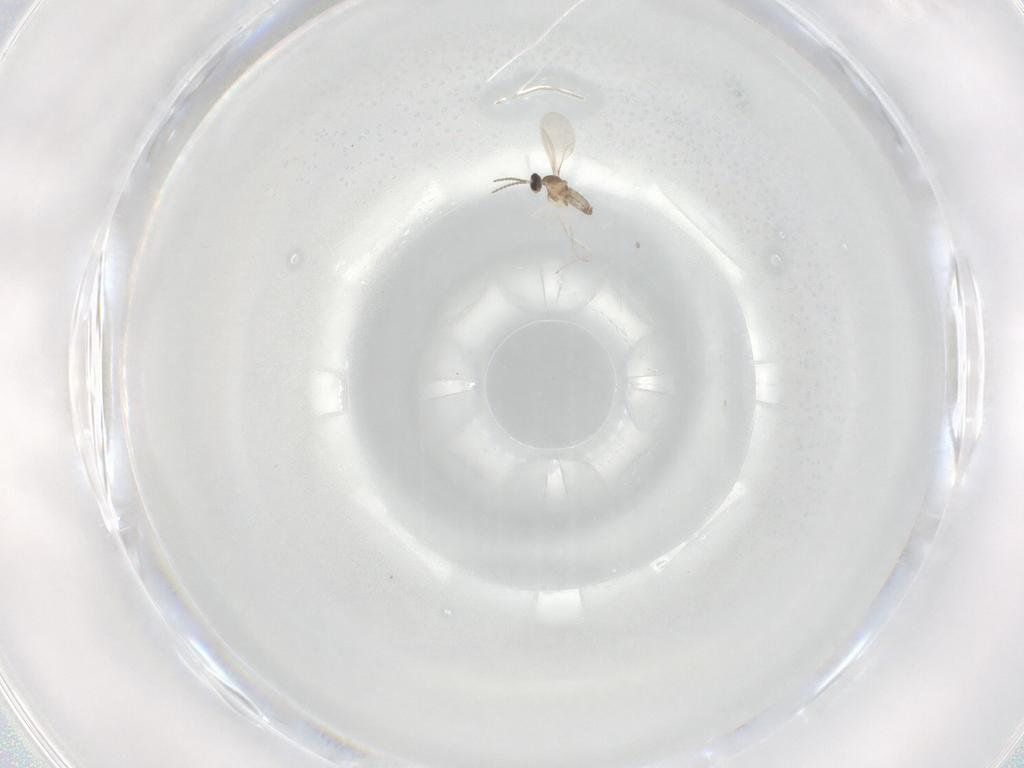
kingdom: Animalia
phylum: Arthropoda
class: Insecta
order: Diptera
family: Cecidomyiidae
